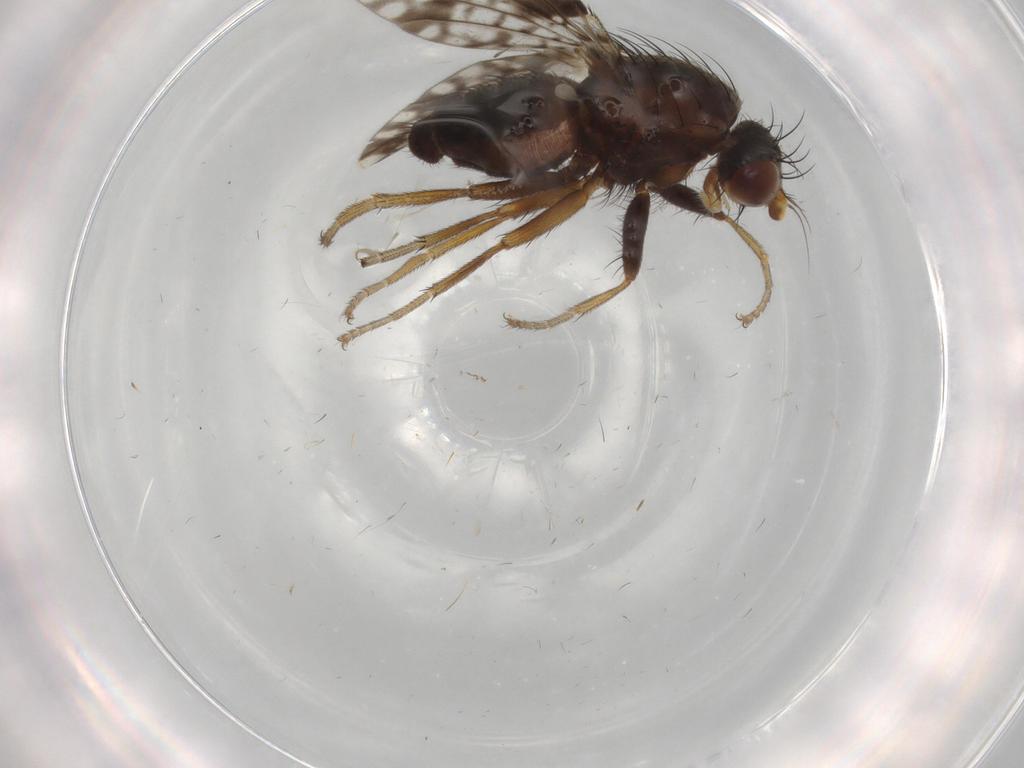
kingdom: Animalia
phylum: Arthropoda
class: Insecta
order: Diptera
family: Tephritidae
